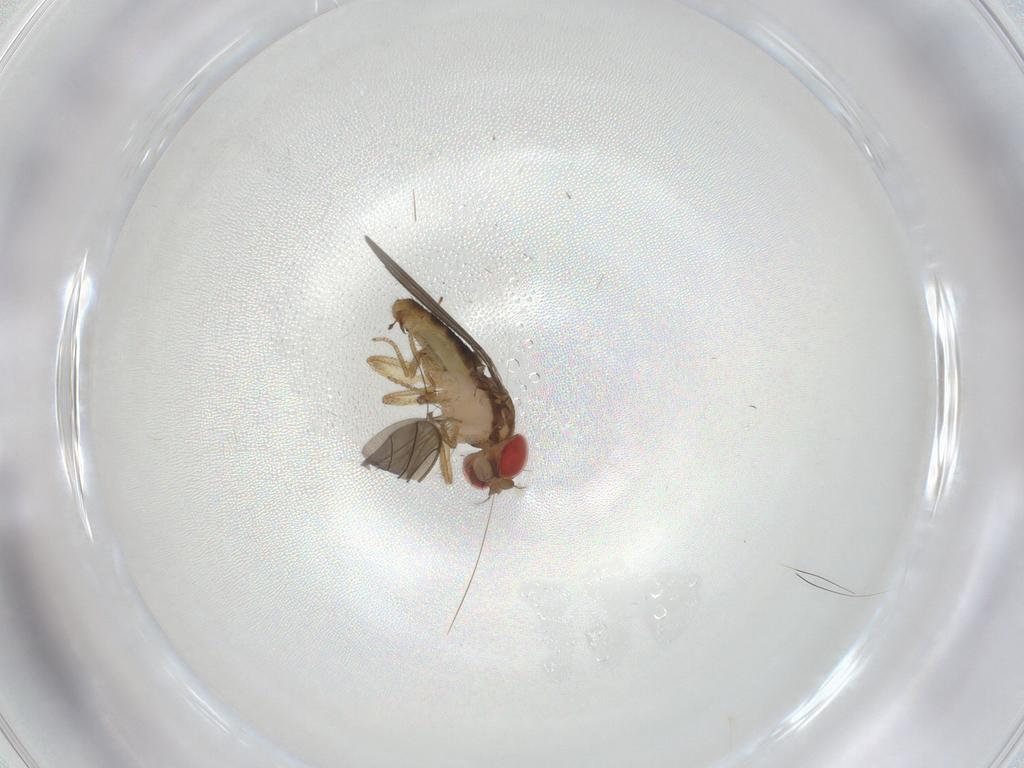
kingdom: Animalia
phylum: Arthropoda
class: Insecta
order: Diptera
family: Drosophilidae
